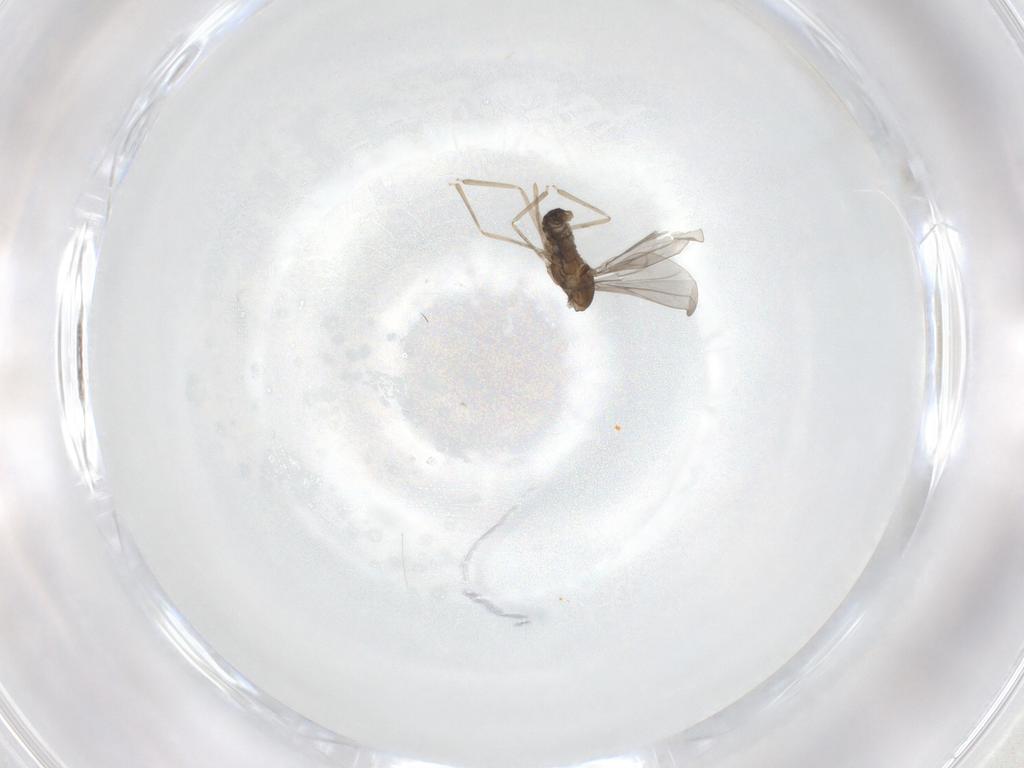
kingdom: Animalia
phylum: Arthropoda
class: Insecta
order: Diptera
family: Cecidomyiidae
